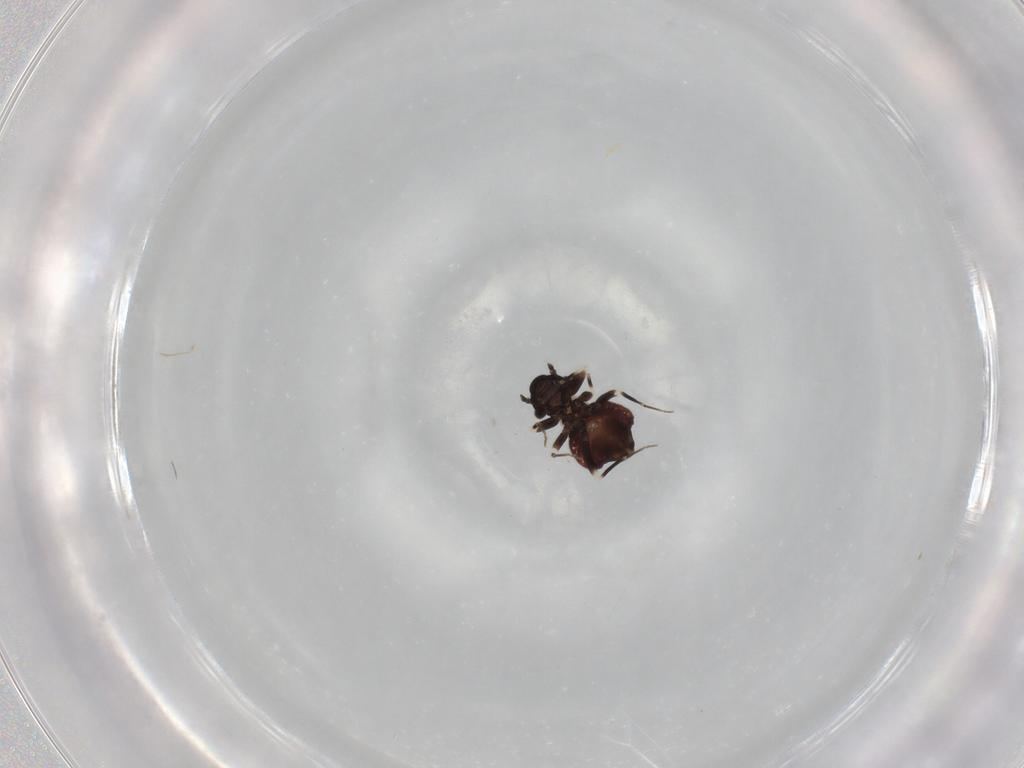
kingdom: Animalia
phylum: Arthropoda
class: Insecta
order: Psocodea
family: Lepidopsocidae
